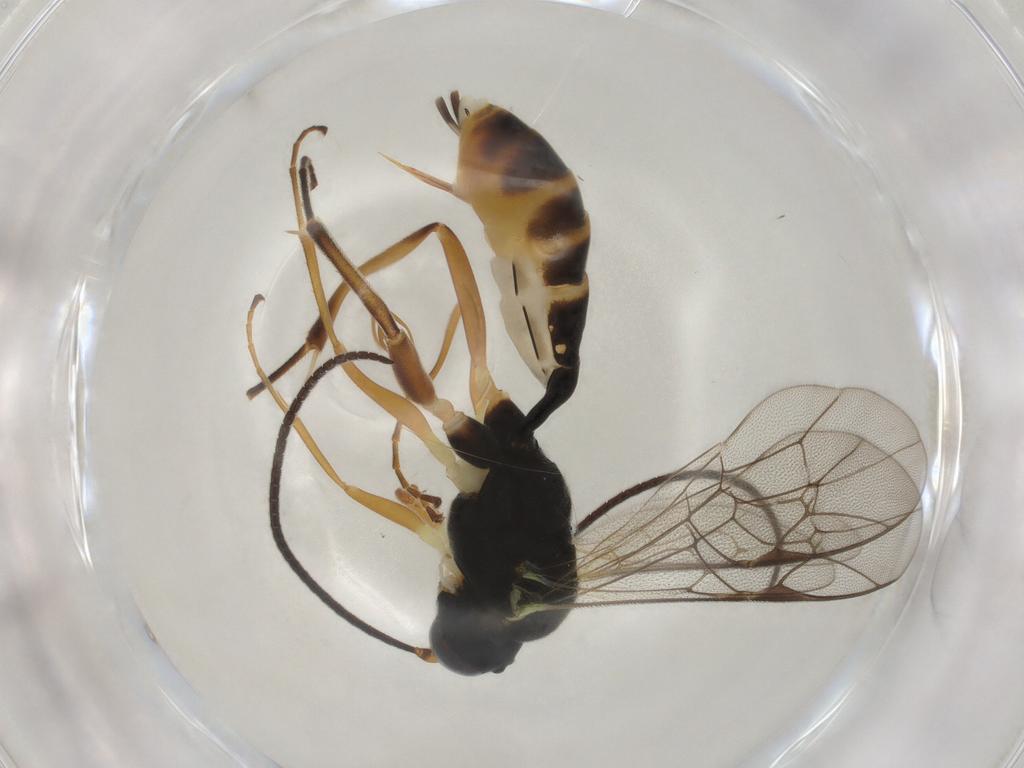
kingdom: Animalia
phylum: Arthropoda
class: Insecta
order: Hymenoptera
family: Ichneumonidae
